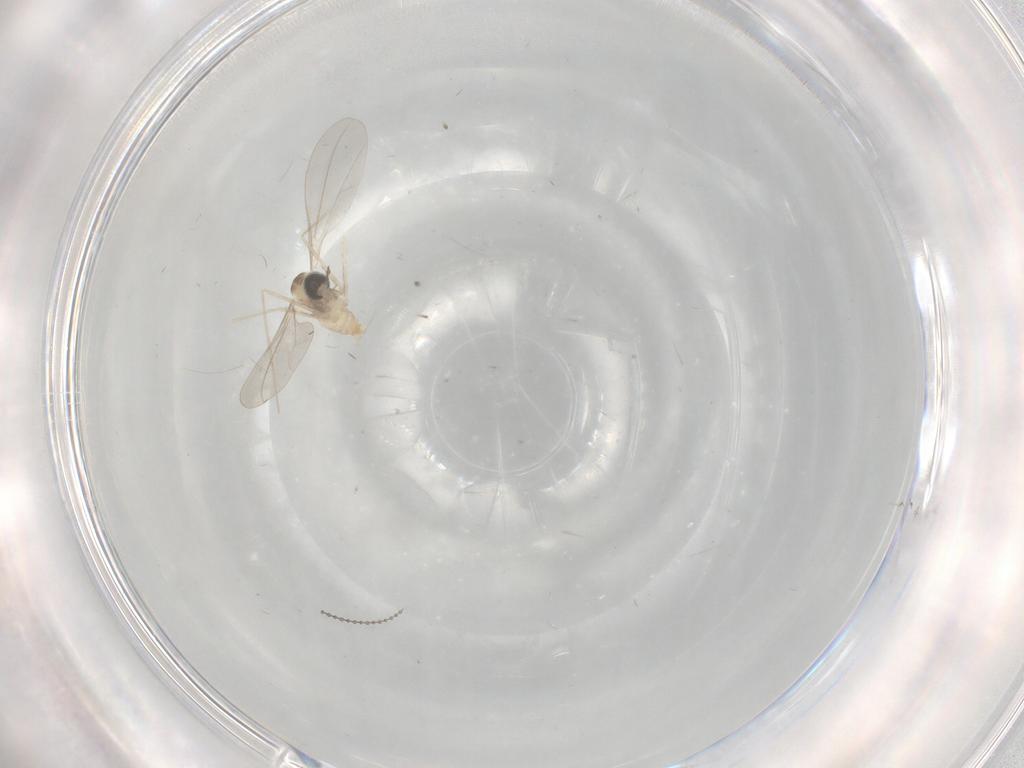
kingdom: Animalia
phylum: Arthropoda
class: Insecta
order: Diptera
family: Cecidomyiidae
